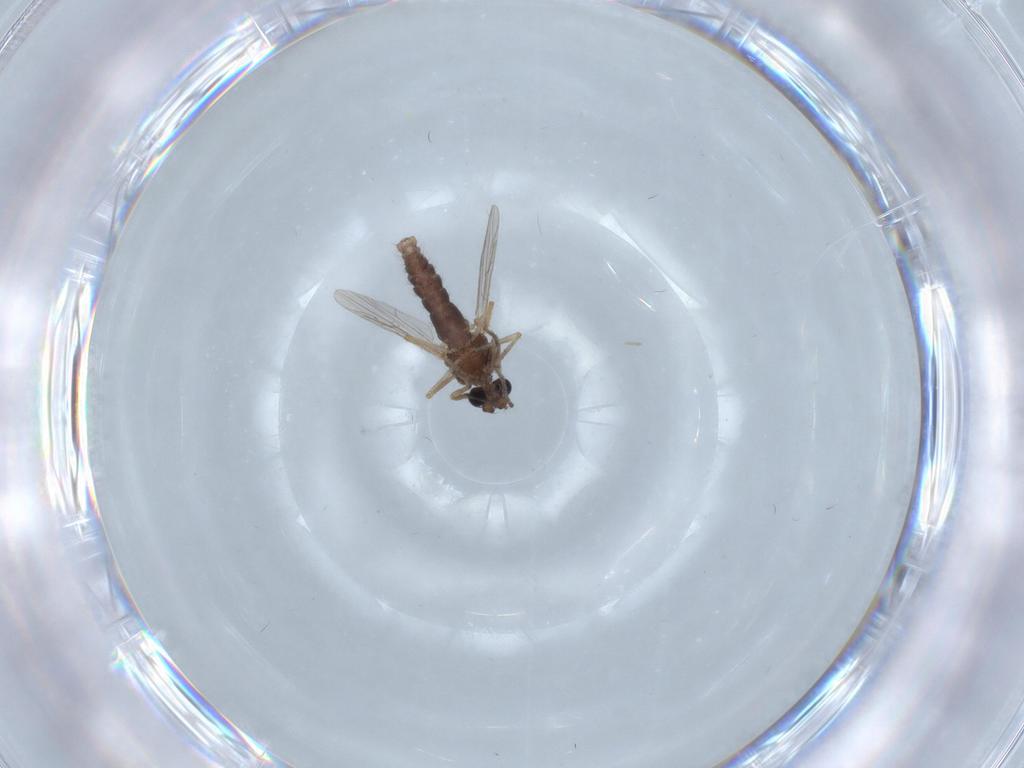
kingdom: Animalia
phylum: Arthropoda
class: Insecta
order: Diptera
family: Ceratopogonidae
